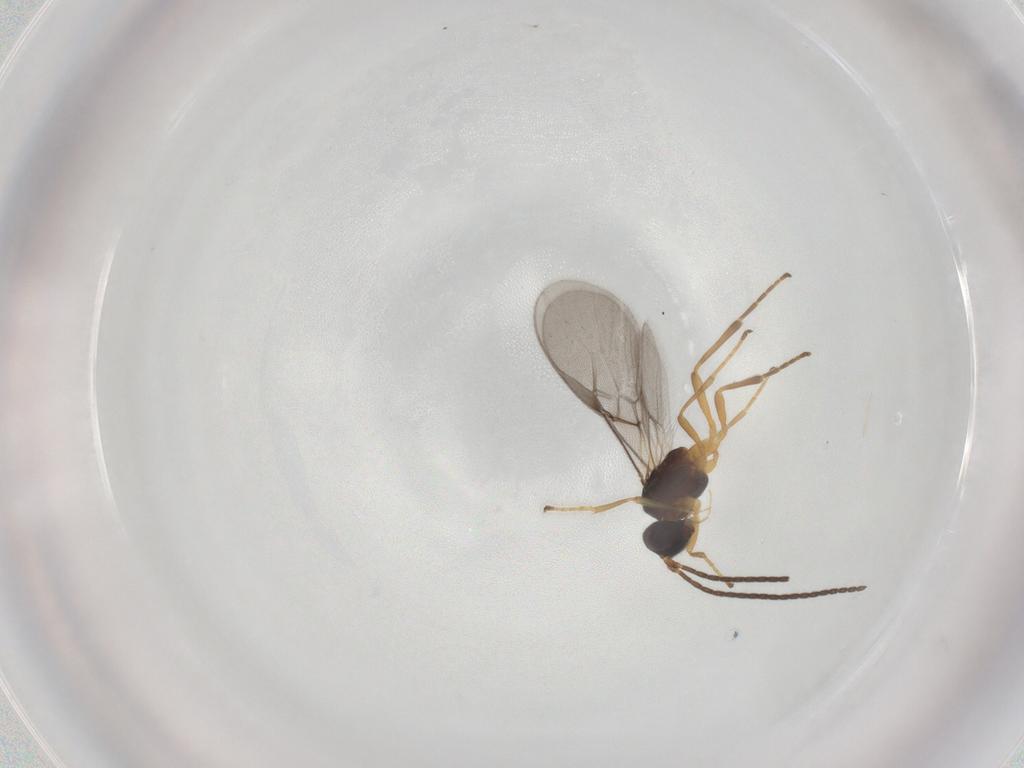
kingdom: Animalia
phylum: Arthropoda
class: Insecta
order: Hymenoptera
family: Braconidae
